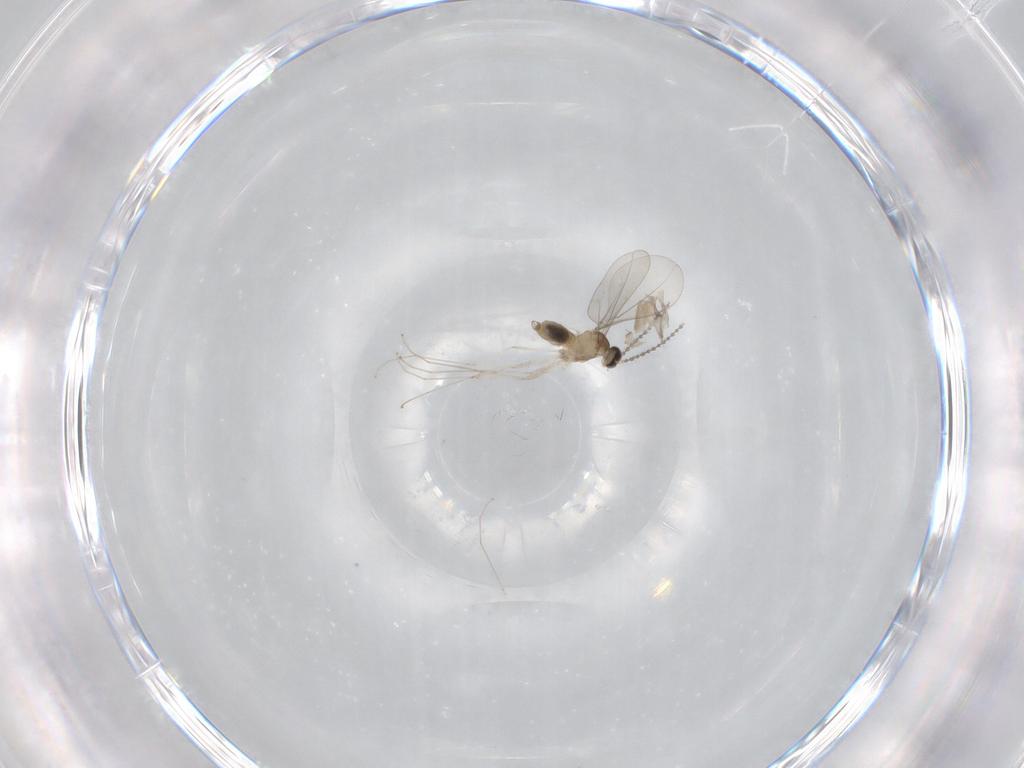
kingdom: Animalia
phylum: Arthropoda
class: Insecta
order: Diptera
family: Cecidomyiidae
